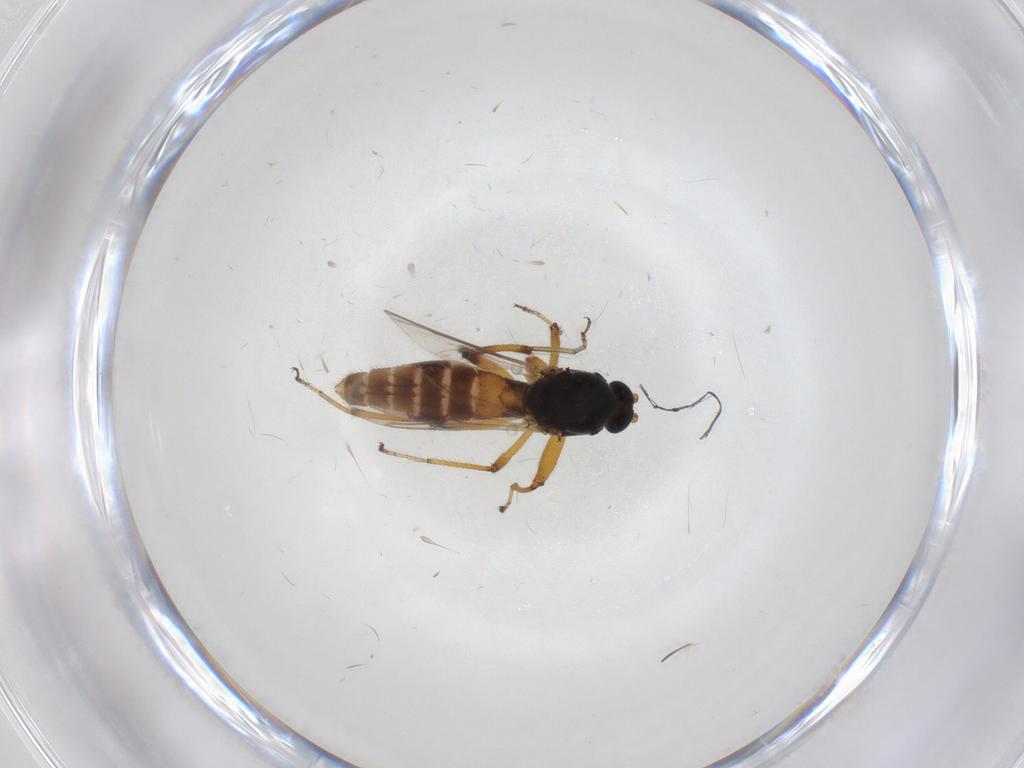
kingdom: Animalia
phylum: Arthropoda
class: Insecta
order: Diptera
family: Ceratopogonidae
